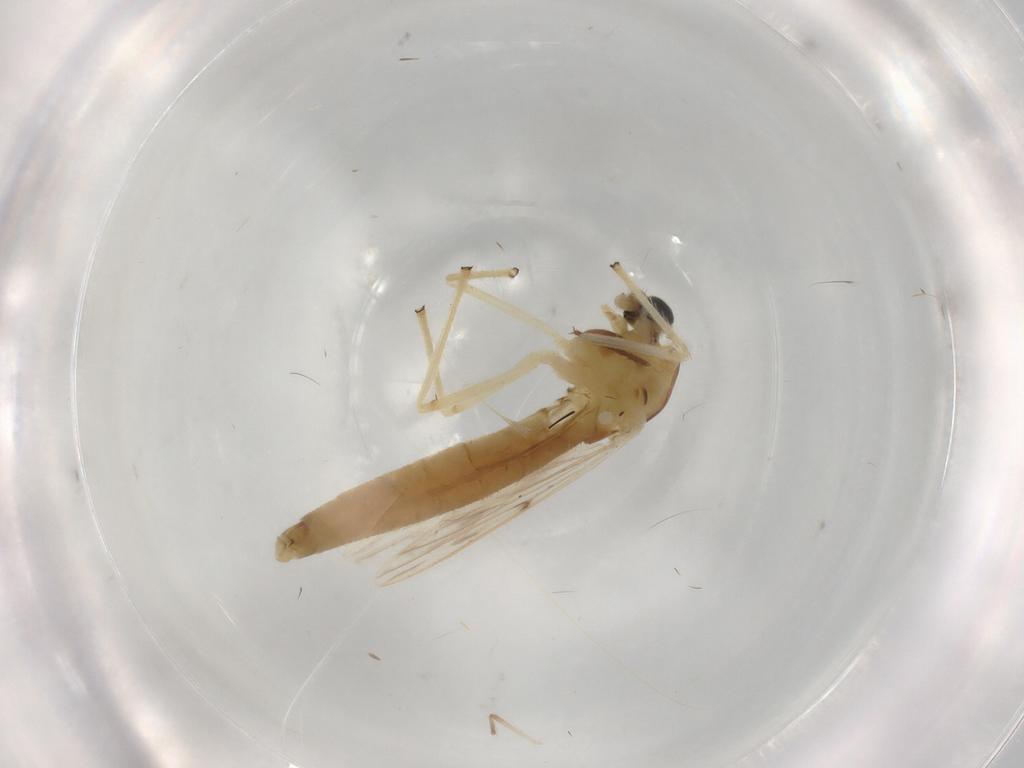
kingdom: Animalia
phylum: Arthropoda
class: Insecta
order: Diptera
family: Chironomidae
